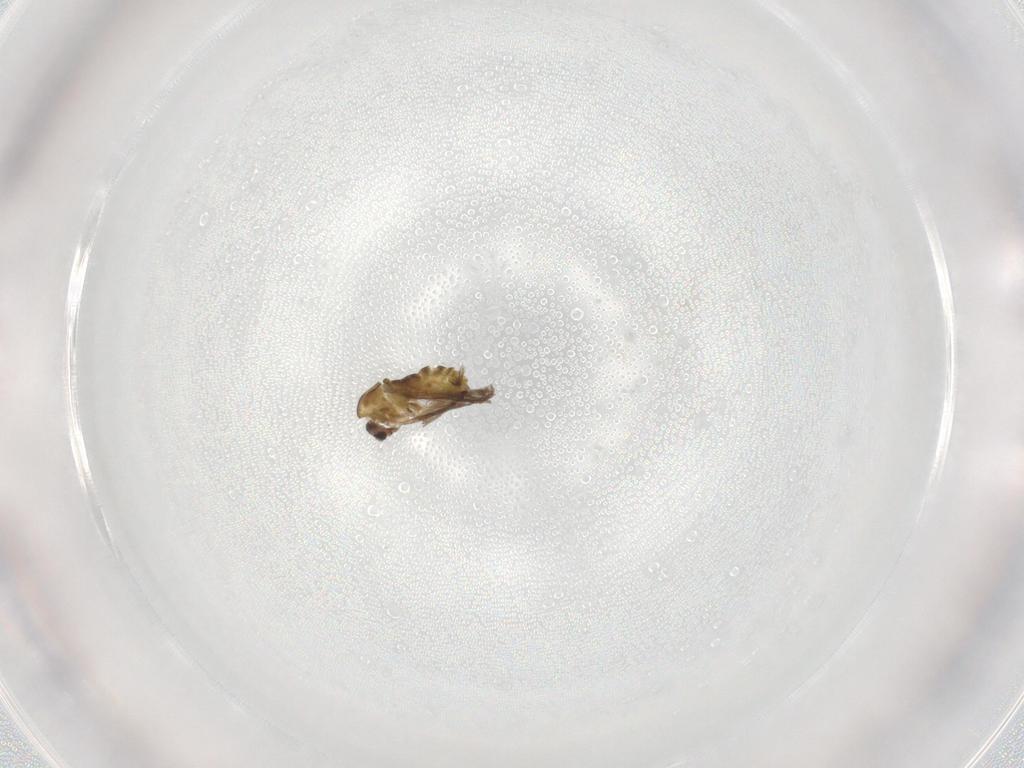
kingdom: Animalia
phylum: Arthropoda
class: Insecta
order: Diptera
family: Chironomidae
